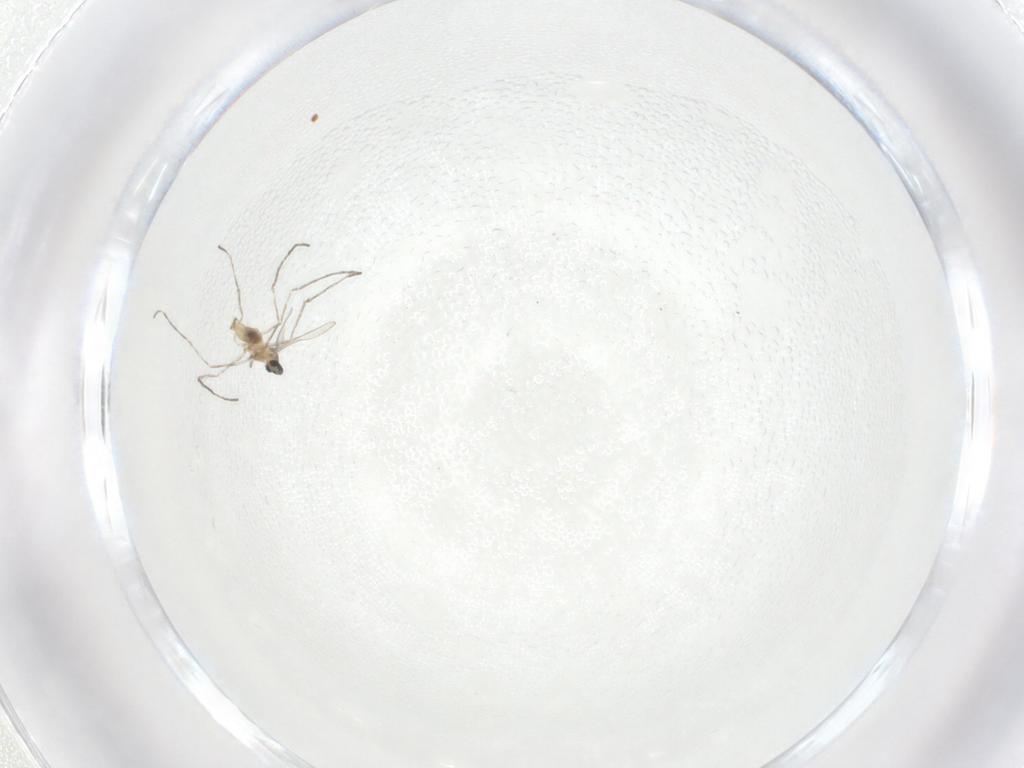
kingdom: Animalia
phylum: Arthropoda
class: Insecta
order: Diptera
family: Cecidomyiidae
